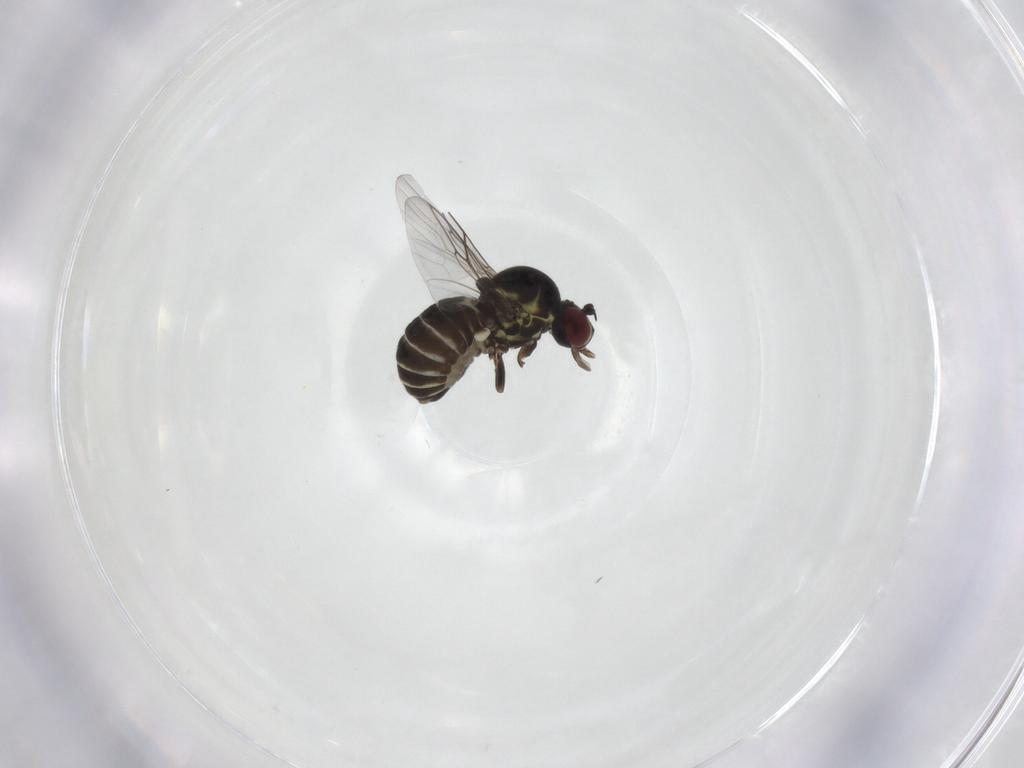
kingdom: Animalia
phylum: Arthropoda
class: Insecta
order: Diptera
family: Mythicomyiidae
